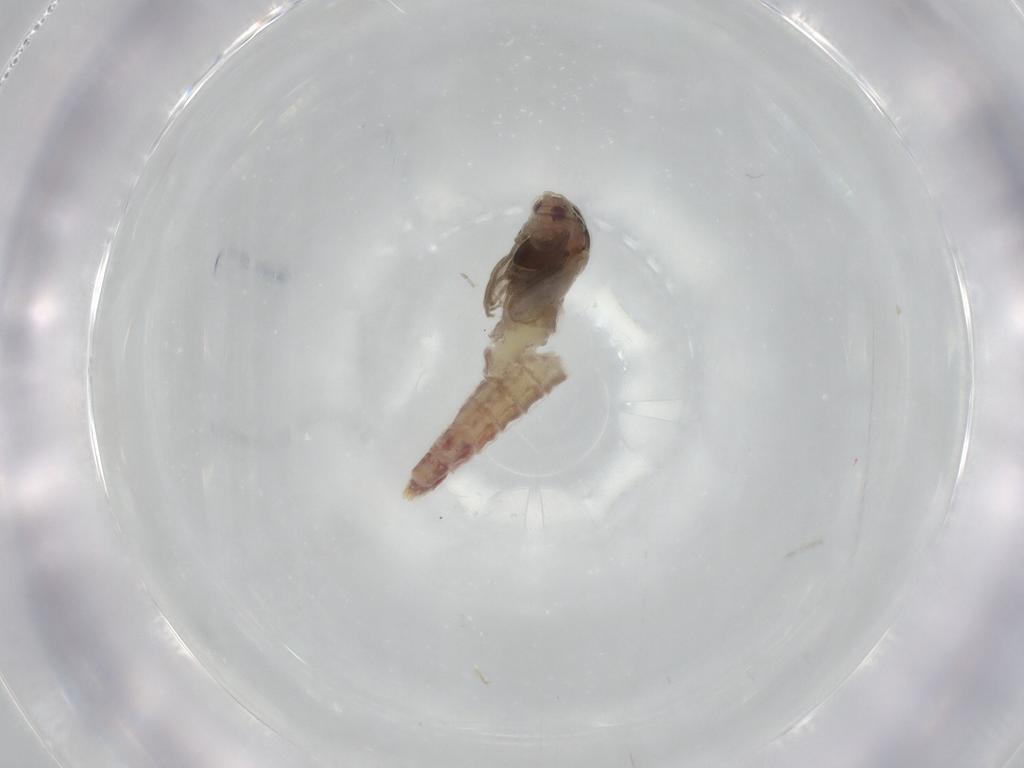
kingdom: Animalia
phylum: Arthropoda
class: Insecta
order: Diptera
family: Chironomidae
